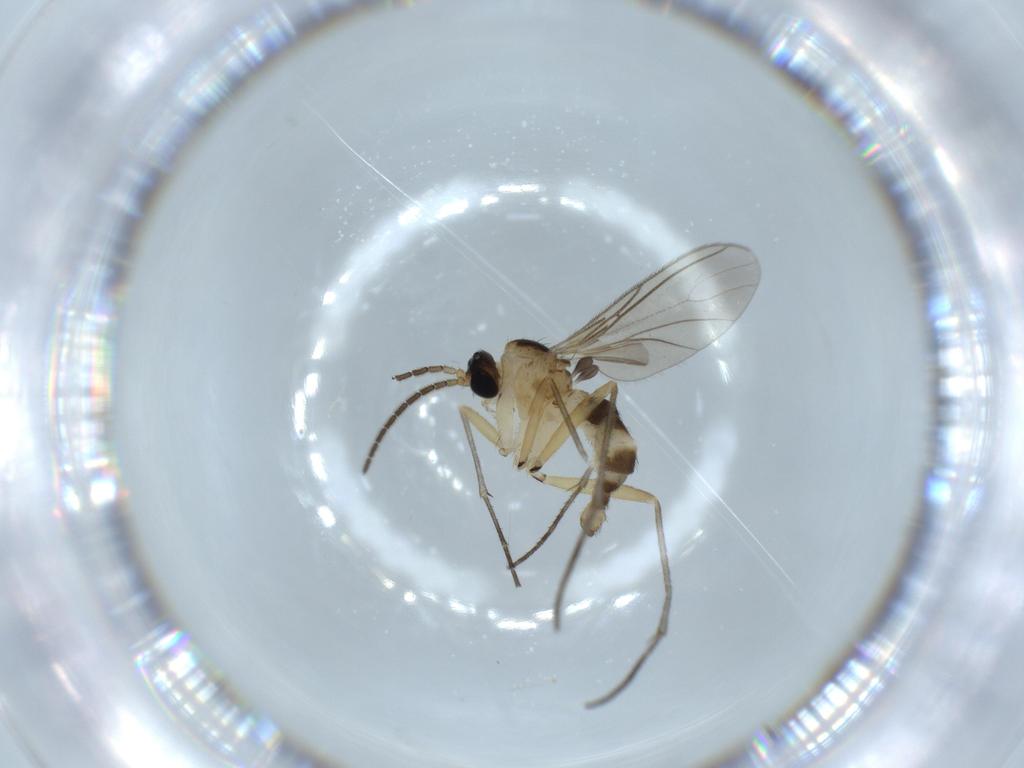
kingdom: Animalia
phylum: Arthropoda
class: Insecta
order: Diptera
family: Sciaridae
